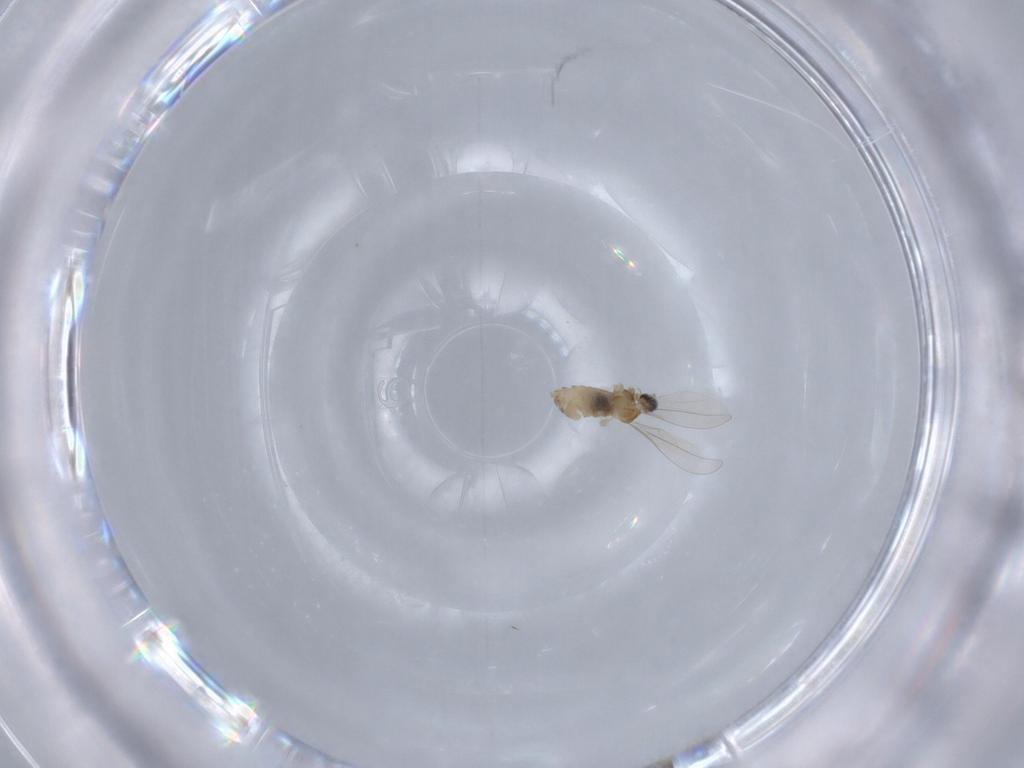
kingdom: Animalia
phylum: Arthropoda
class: Insecta
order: Diptera
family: Cecidomyiidae
